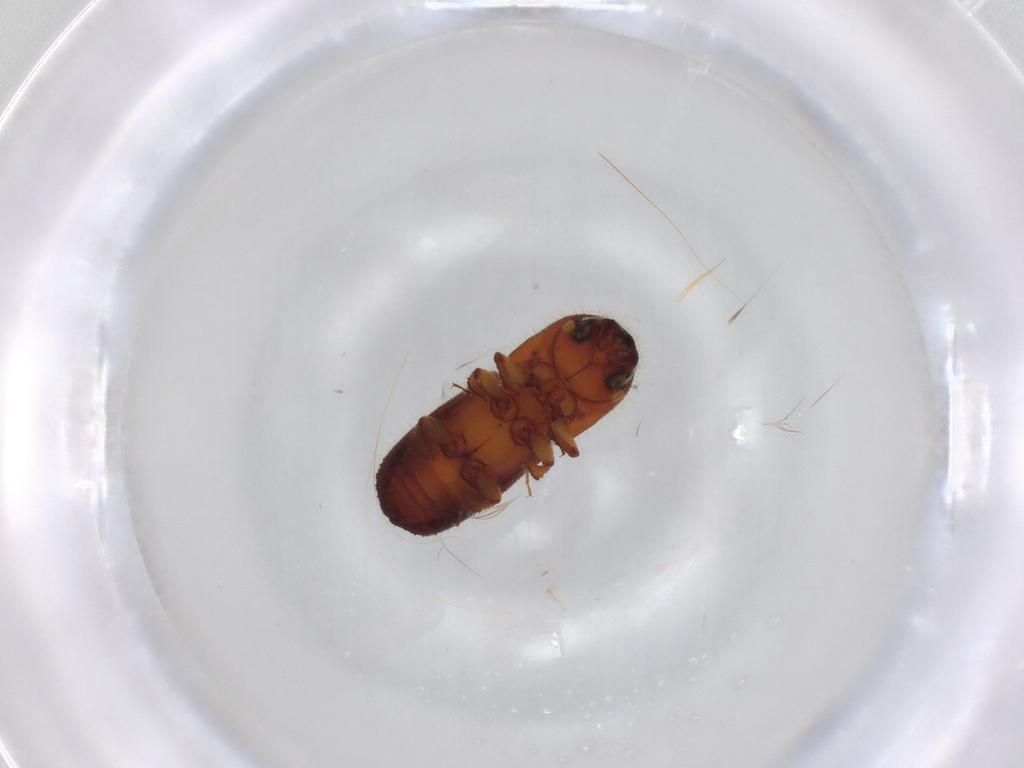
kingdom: Animalia
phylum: Arthropoda
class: Insecta
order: Coleoptera
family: Curculionidae
